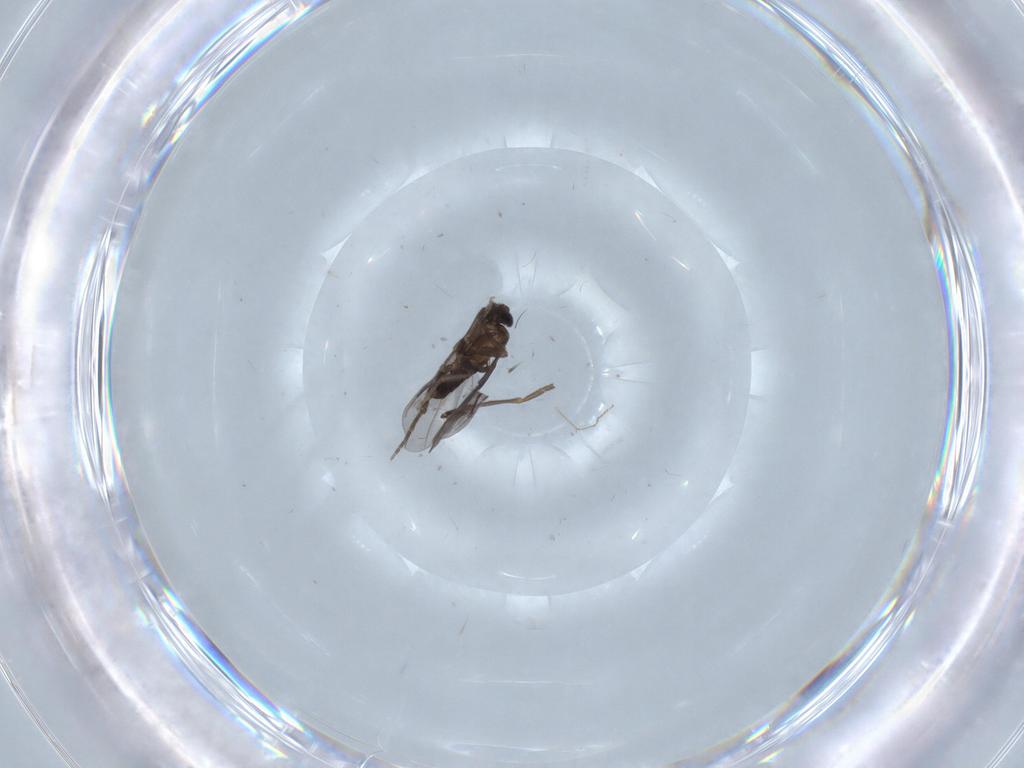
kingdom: Animalia
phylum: Arthropoda
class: Insecta
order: Diptera
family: Phoridae
